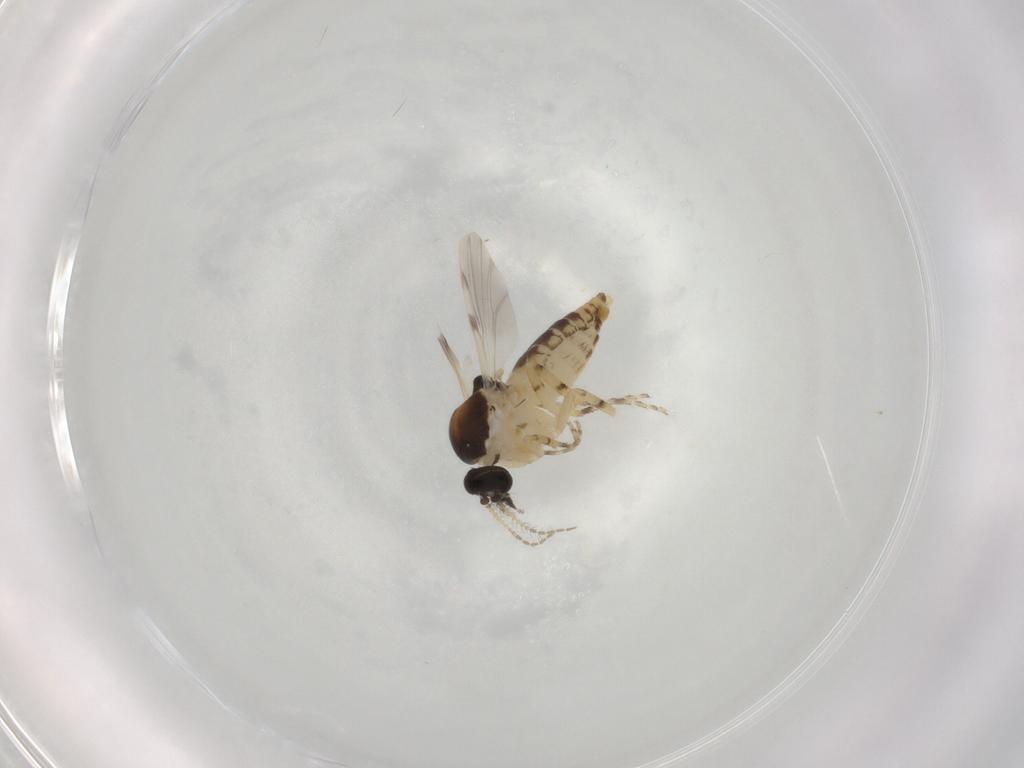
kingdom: Animalia
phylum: Arthropoda
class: Insecta
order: Diptera
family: Ceratopogonidae
